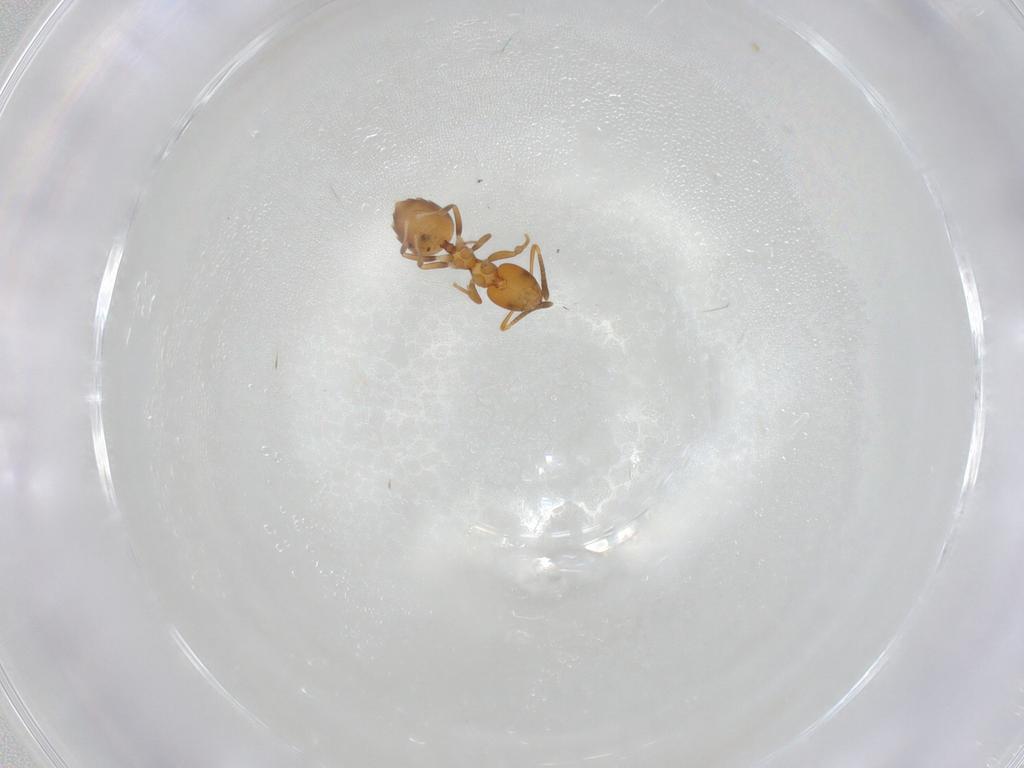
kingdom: Animalia
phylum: Arthropoda
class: Insecta
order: Hymenoptera
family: Formicidae
